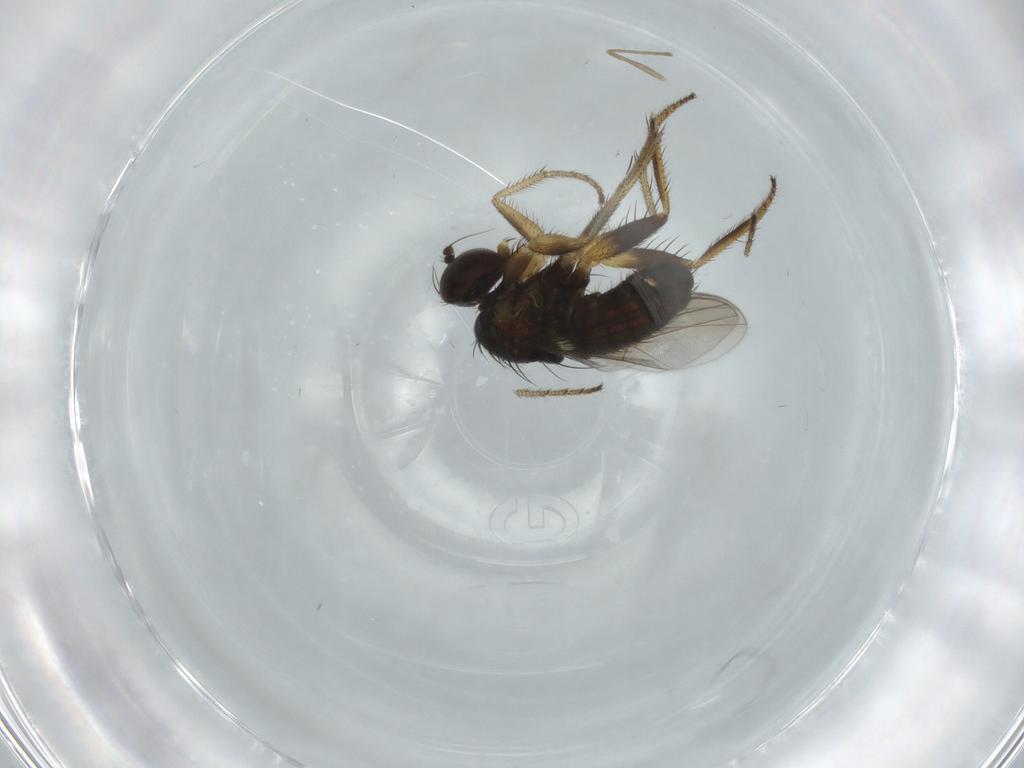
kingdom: Animalia
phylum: Arthropoda
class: Insecta
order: Diptera
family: Dolichopodidae
